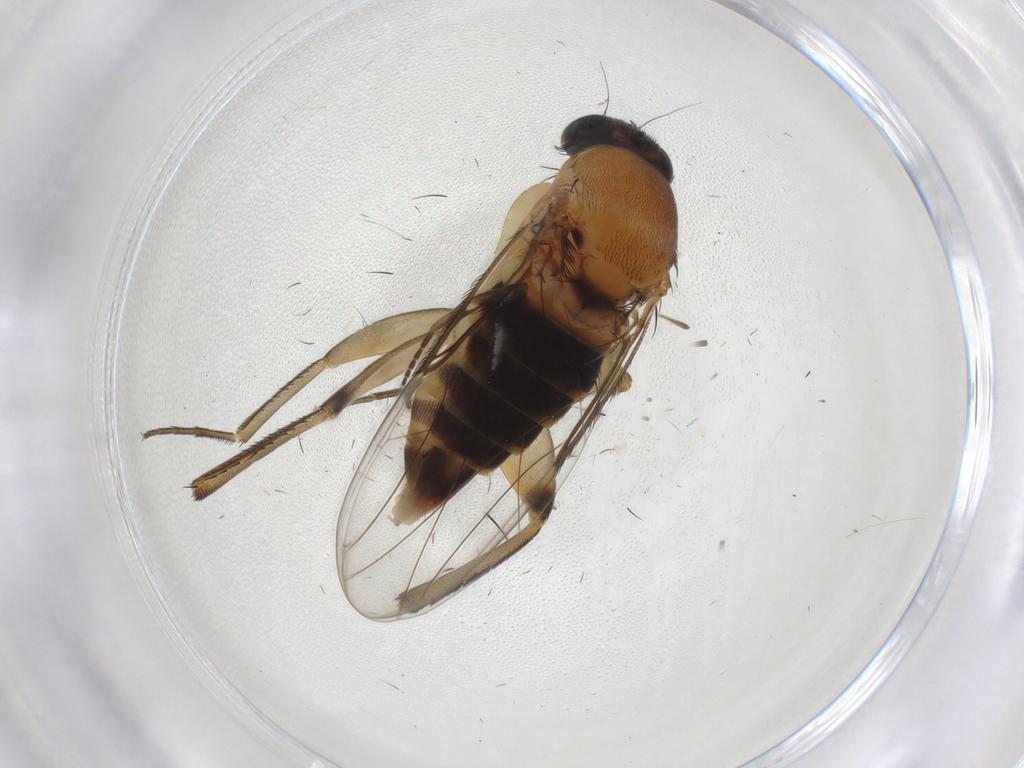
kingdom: Animalia
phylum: Arthropoda
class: Insecta
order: Diptera
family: Phoridae
